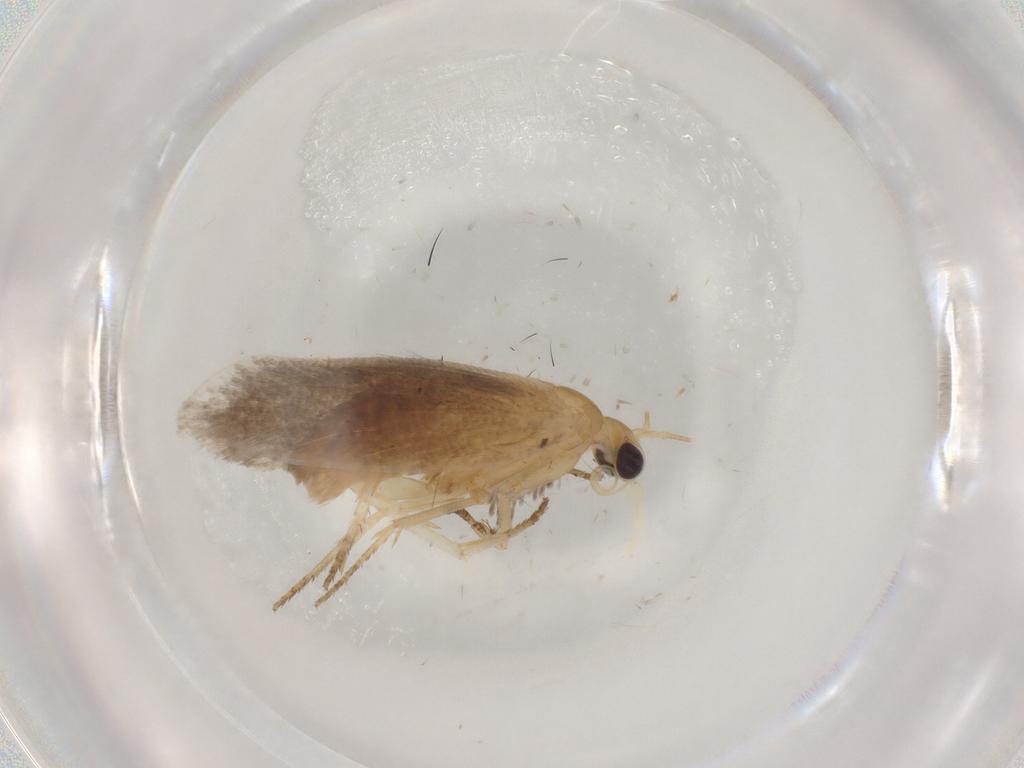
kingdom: Animalia
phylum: Arthropoda
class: Insecta
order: Lepidoptera
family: Plutellidae
